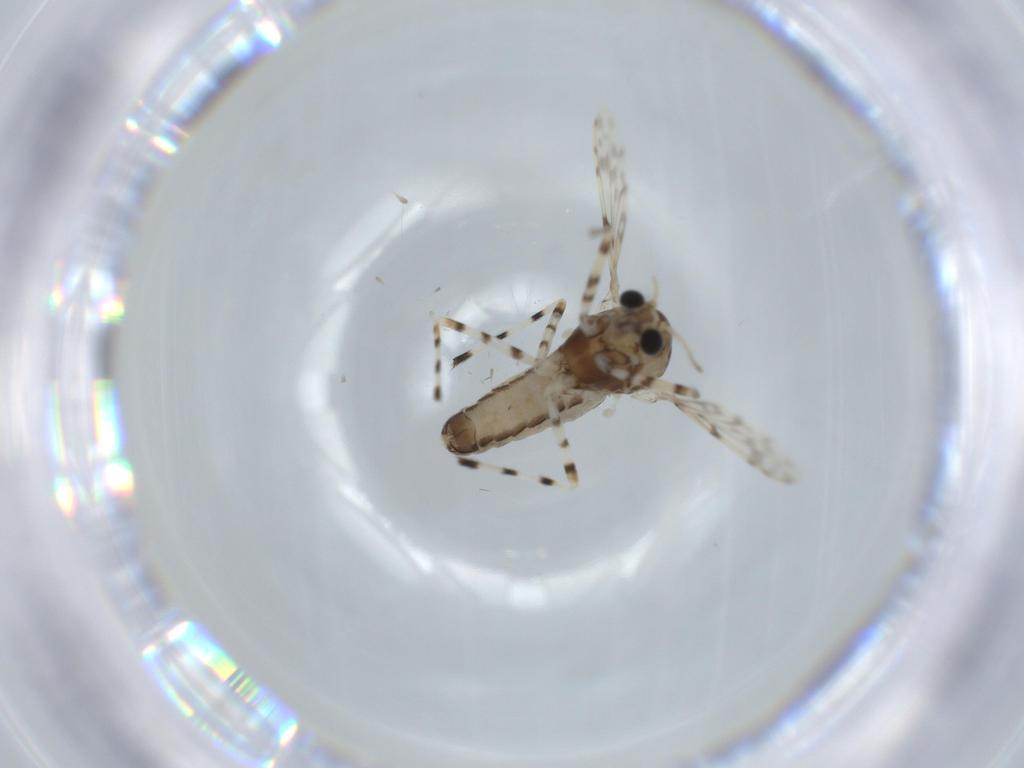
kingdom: Animalia
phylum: Arthropoda
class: Insecta
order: Diptera
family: Chironomidae
